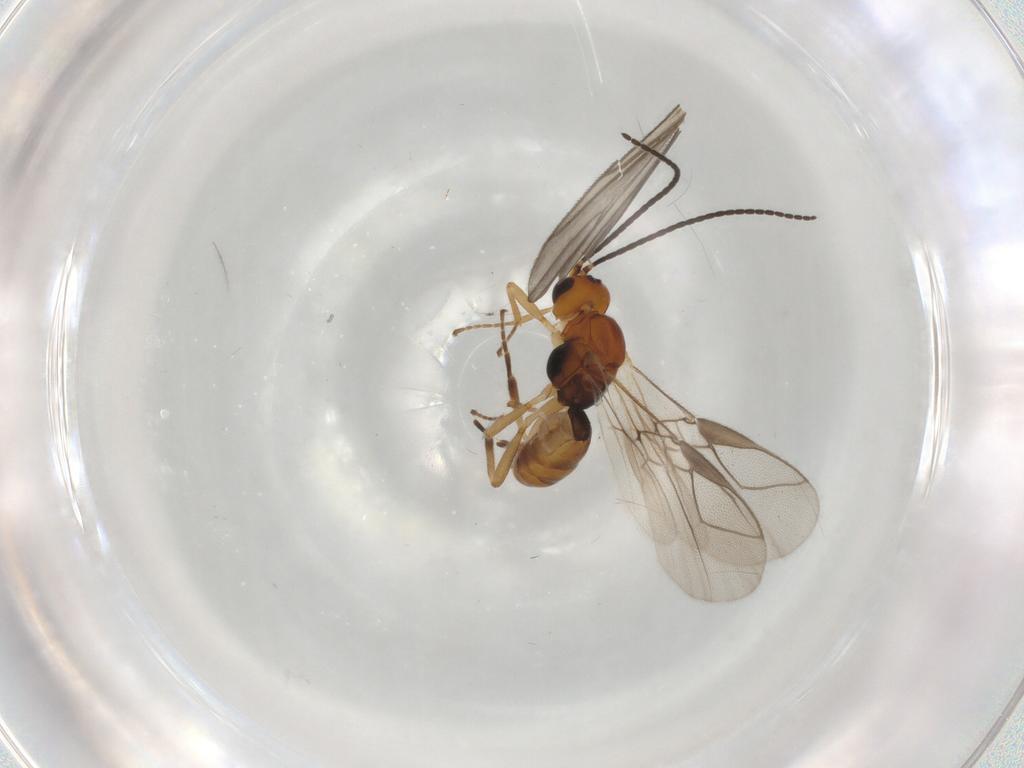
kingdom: Animalia
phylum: Arthropoda
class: Insecta
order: Hymenoptera
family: Braconidae
